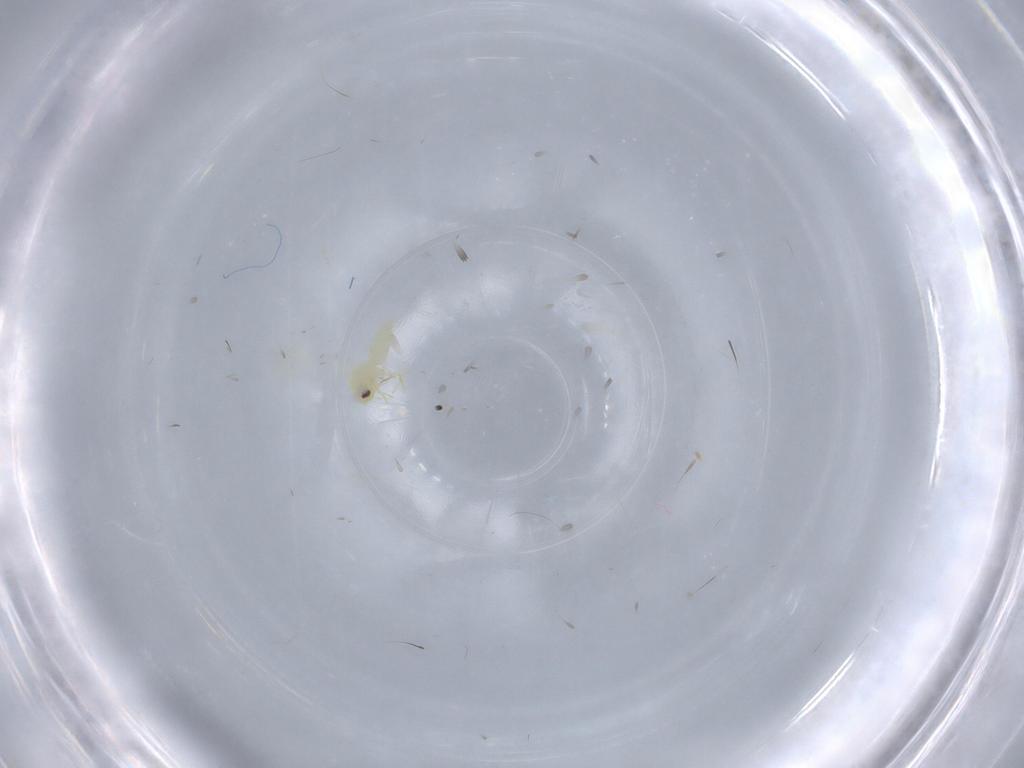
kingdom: Animalia
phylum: Arthropoda
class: Insecta
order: Hemiptera
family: Aleyrodidae
